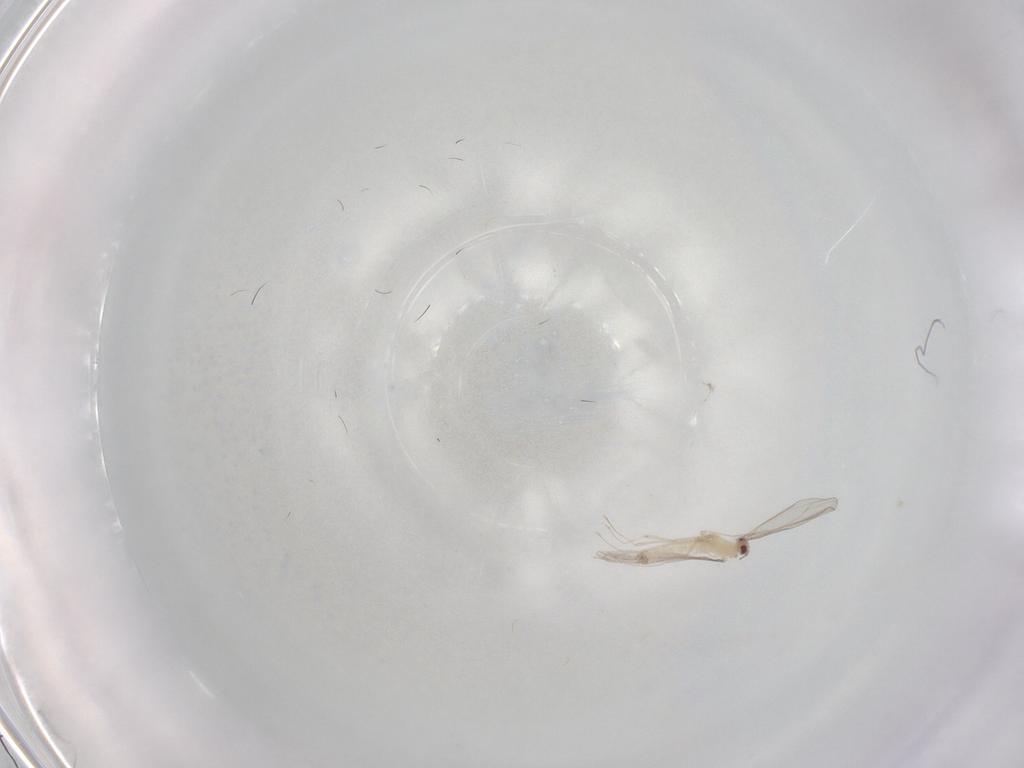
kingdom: Animalia
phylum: Arthropoda
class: Insecta
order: Diptera
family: Cecidomyiidae
